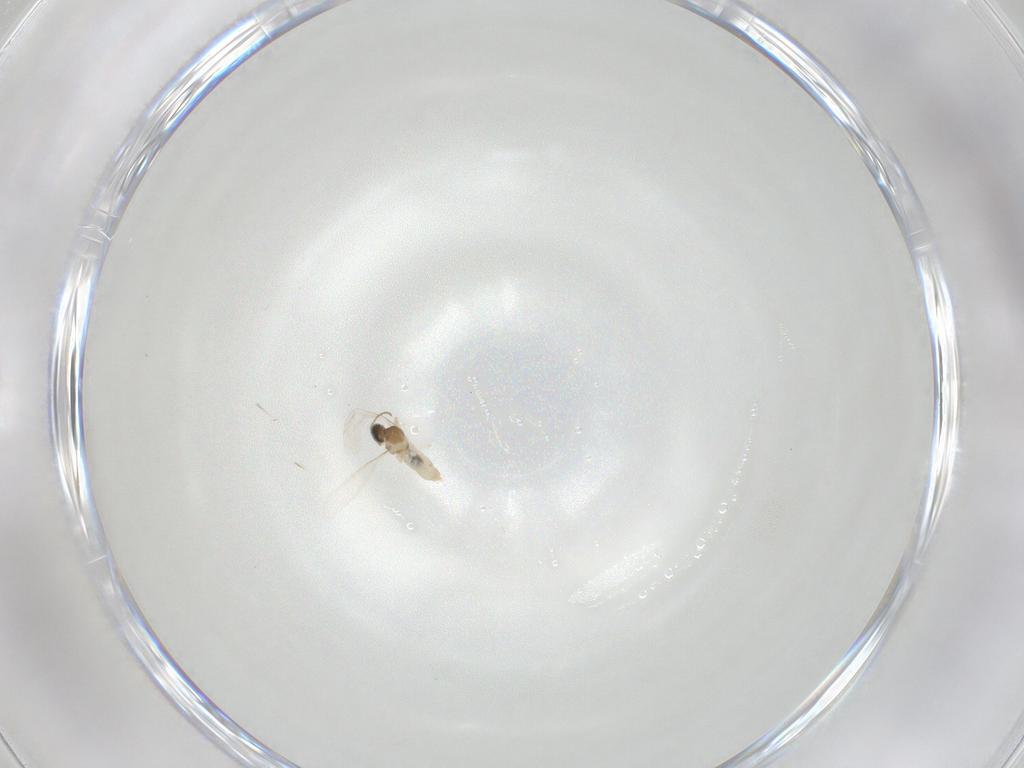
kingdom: Animalia
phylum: Arthropoda
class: Insecta
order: Diptera
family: Cecidomyiidae
